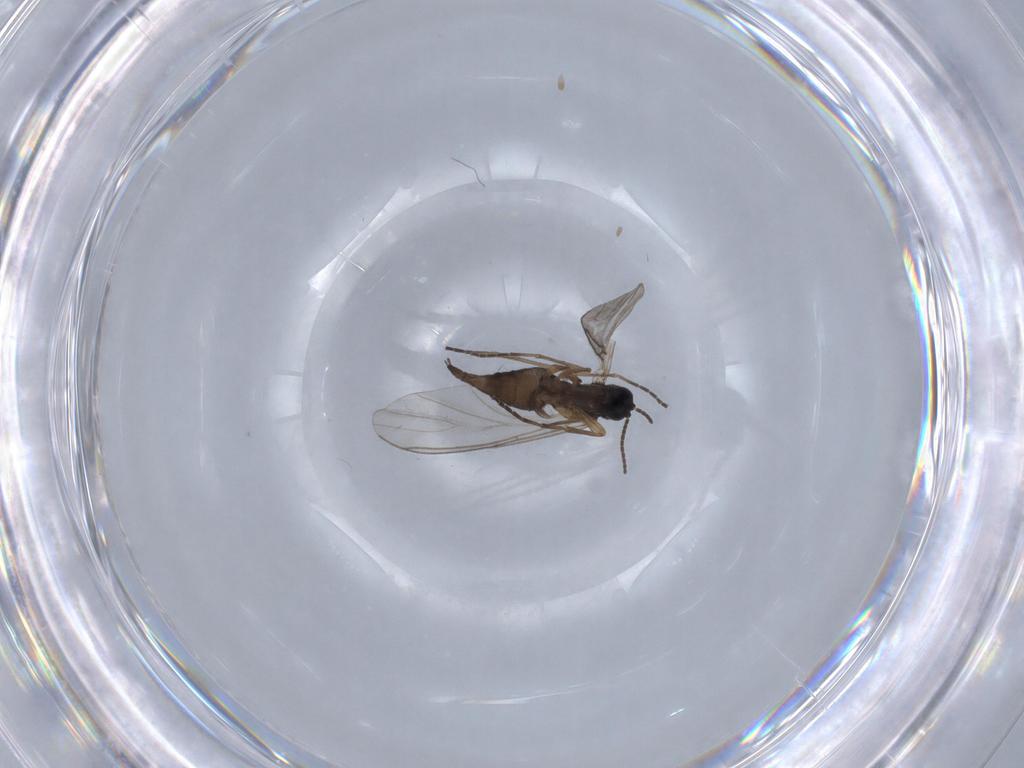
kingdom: Animalia
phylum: Arthropoda
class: Insecta
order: Diptera
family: Sciaridae
